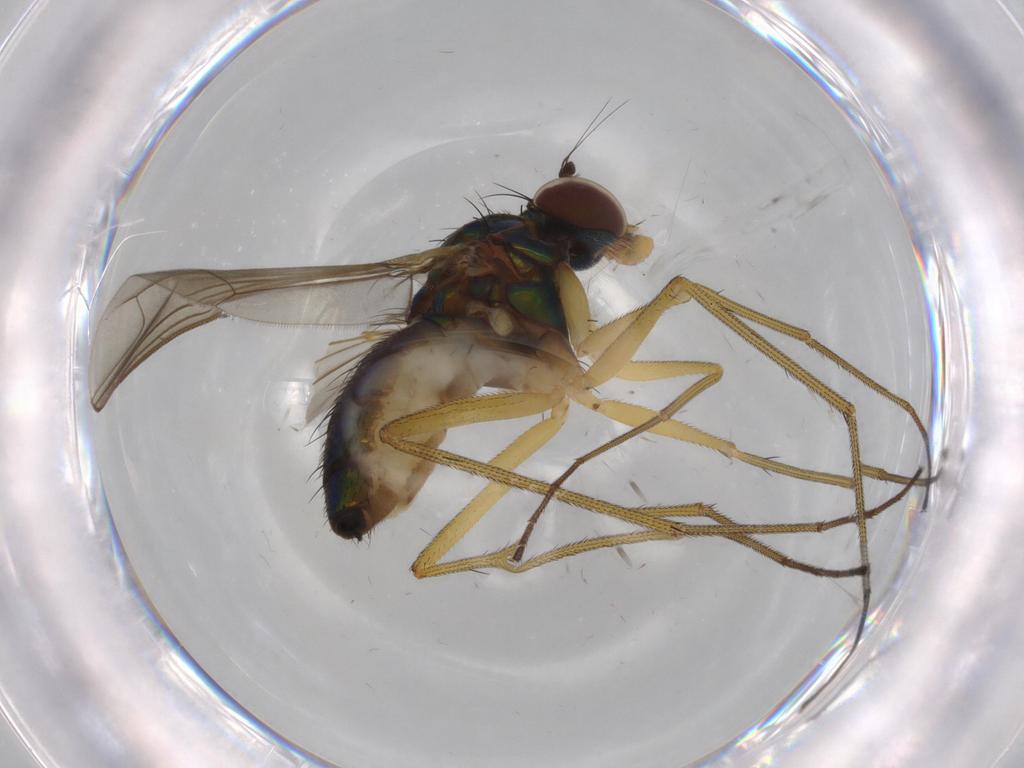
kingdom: Animalia
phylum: Arthropoda
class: Insecta
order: Diptera
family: Dolichopodidae
